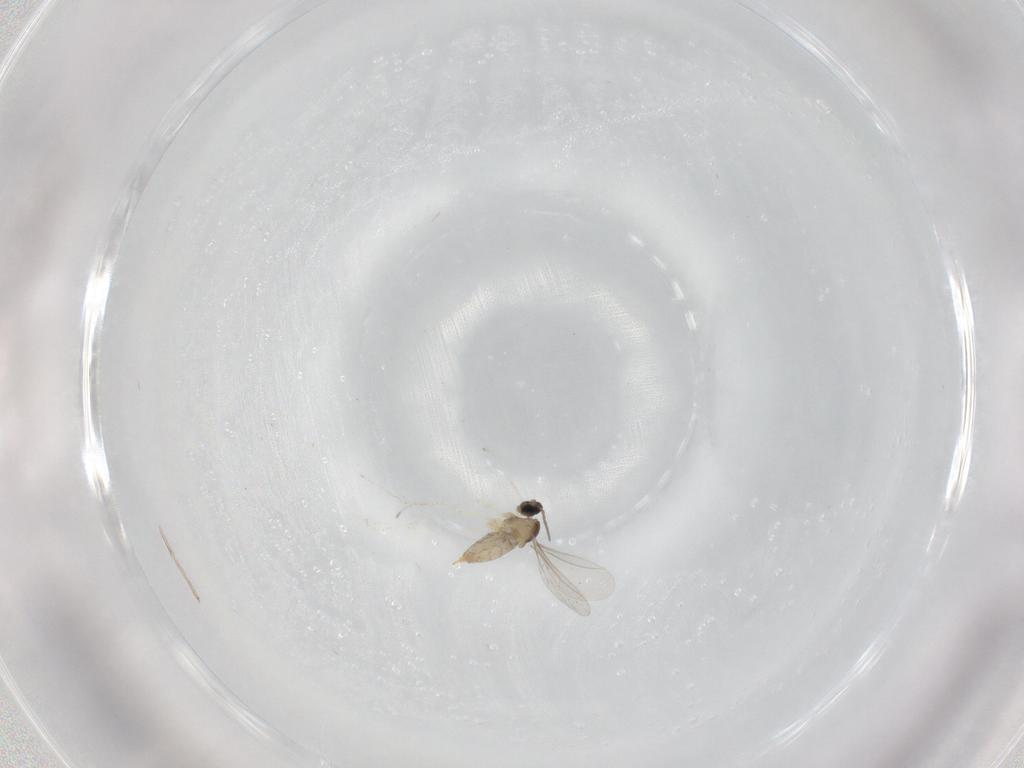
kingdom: Animalia
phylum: Arthropoda
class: Insecta
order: Diptera
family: Cecidomyiidae
